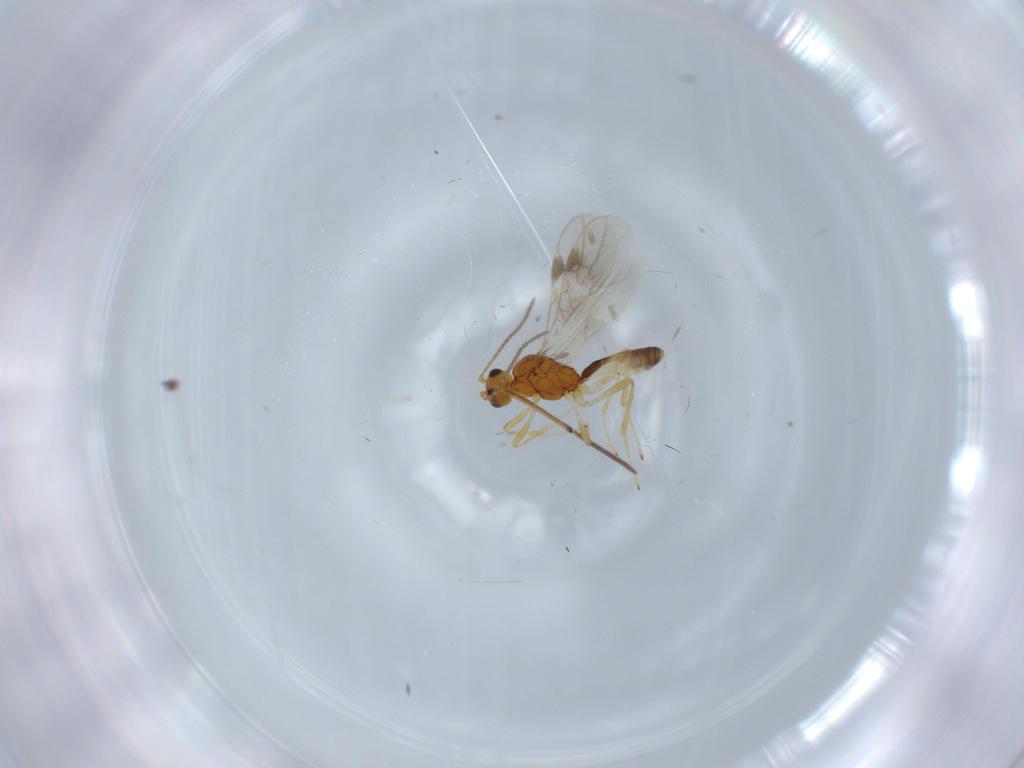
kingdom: Animalia
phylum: Arthropoda
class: Insecta
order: Hymenoptera
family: Braconidae
